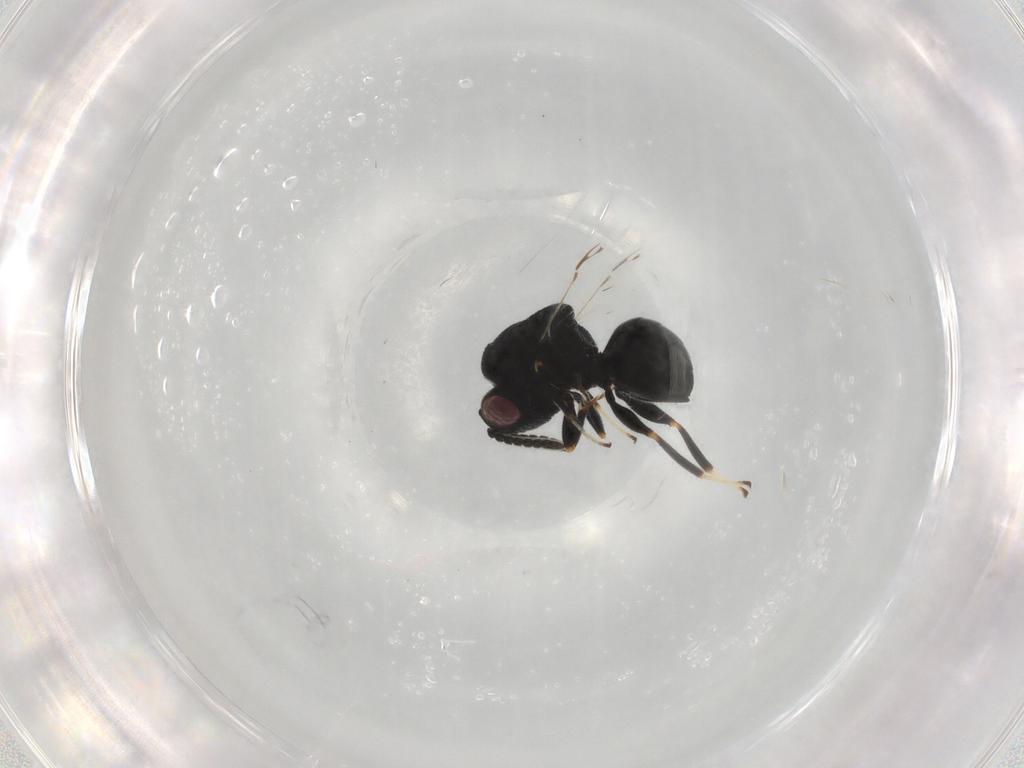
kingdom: Animalia
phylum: Arthropoda
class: Insecta
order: Hymenoptera
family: Eurytomidae
